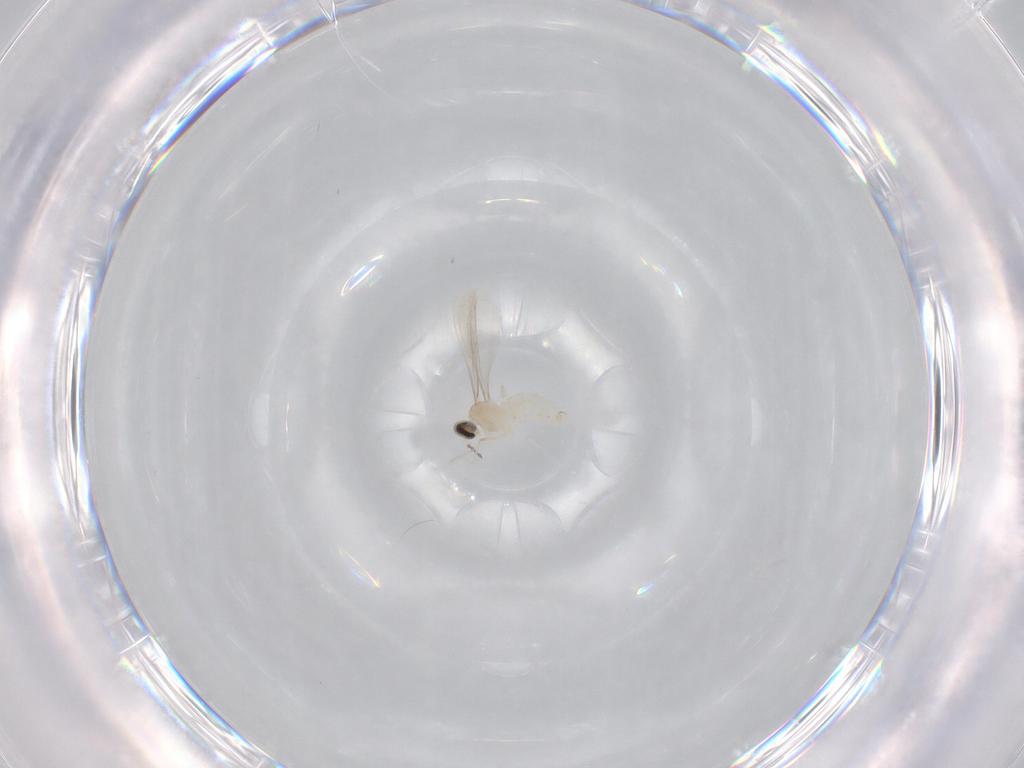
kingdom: Animalia
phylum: Arthropoda
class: Insecta
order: Diptera
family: Cecidomyiidae
